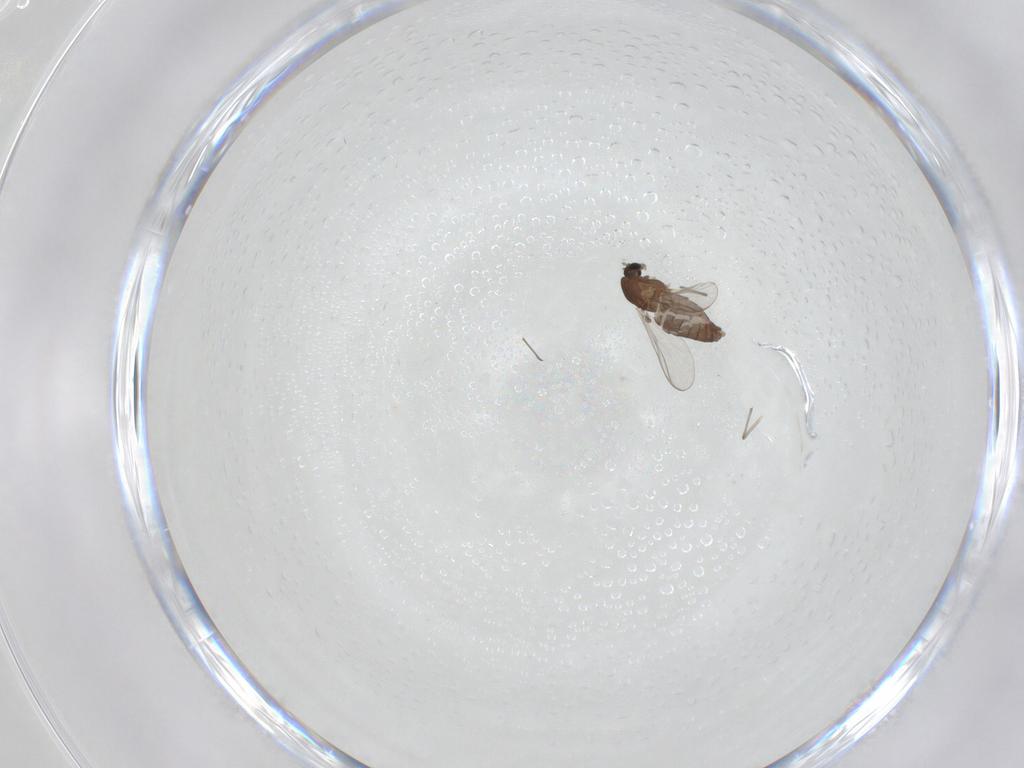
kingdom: Animalia
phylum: Arthropoda
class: Insecta
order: Diptera
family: Chironomidae
